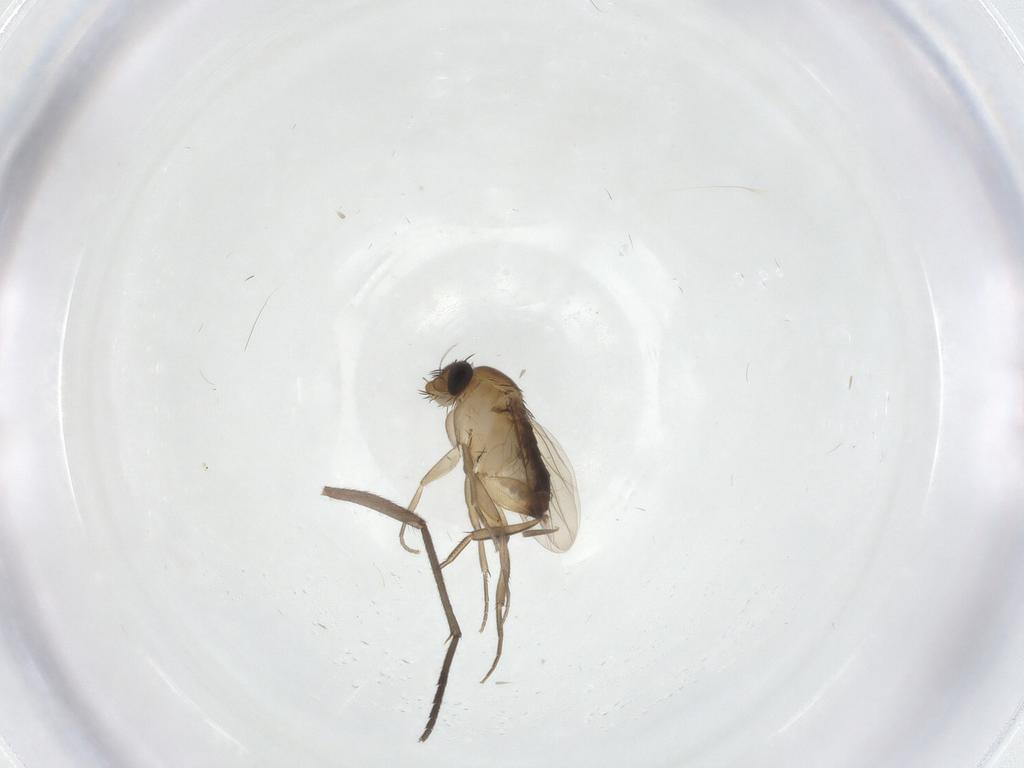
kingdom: Animalia
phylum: Arthropoda
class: Insecta
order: Diptera
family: Sciaridae
